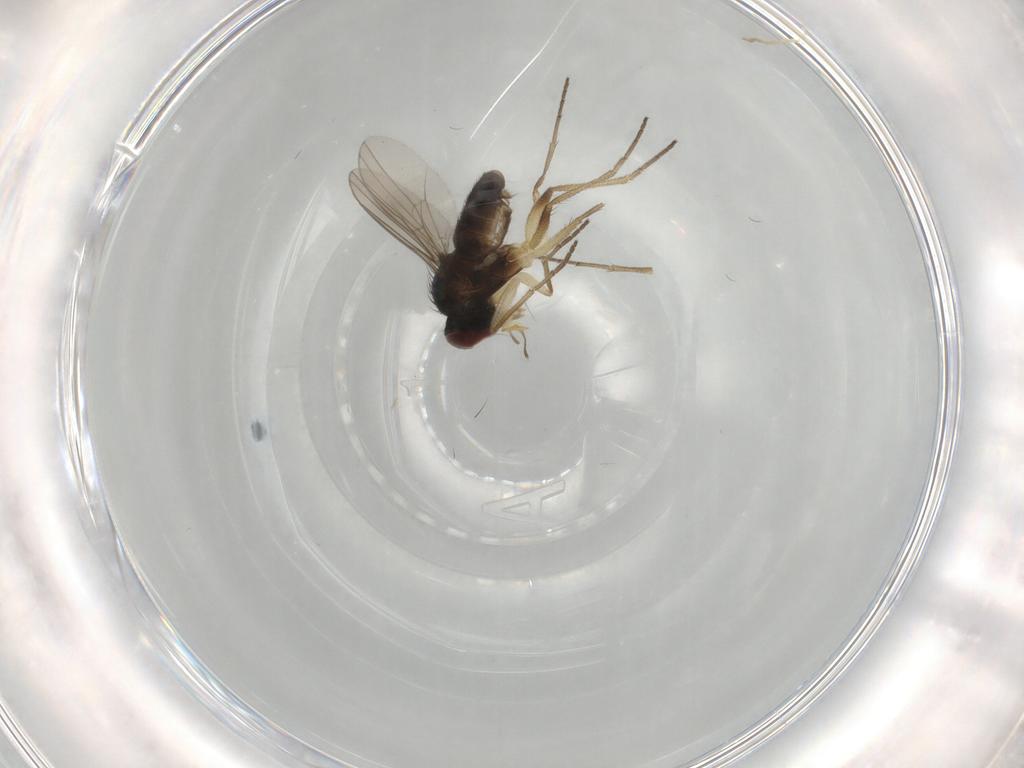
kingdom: Animalia
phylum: Arthropoda
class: Insecta
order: Diptera
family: Dolichopodidae
